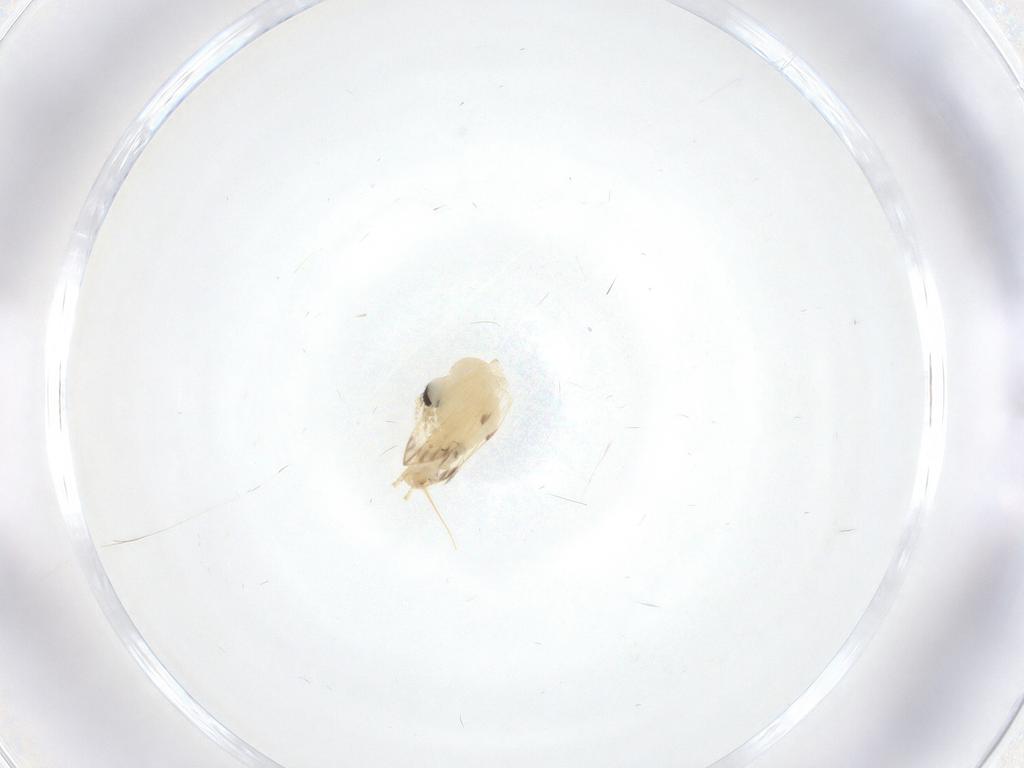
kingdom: Animalia
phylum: Arthropoda
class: Insecta
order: Diptera
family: Psychodidae
